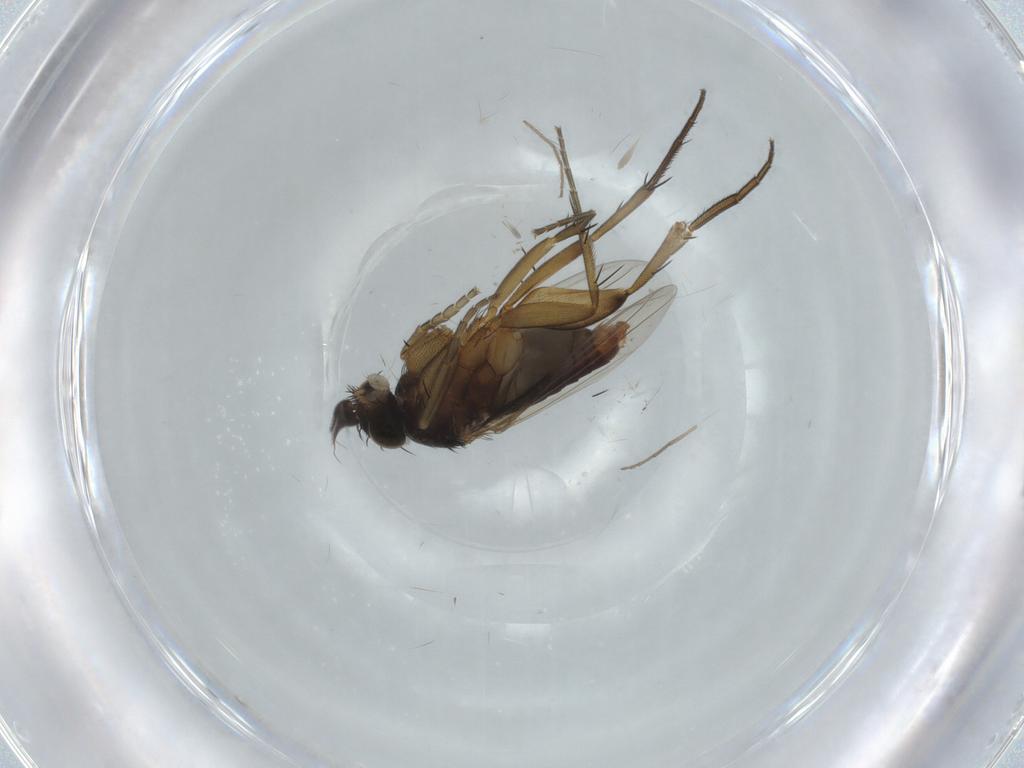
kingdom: Animalia
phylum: Arthropoda
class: Insecta
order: Diptera
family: Phoridae
